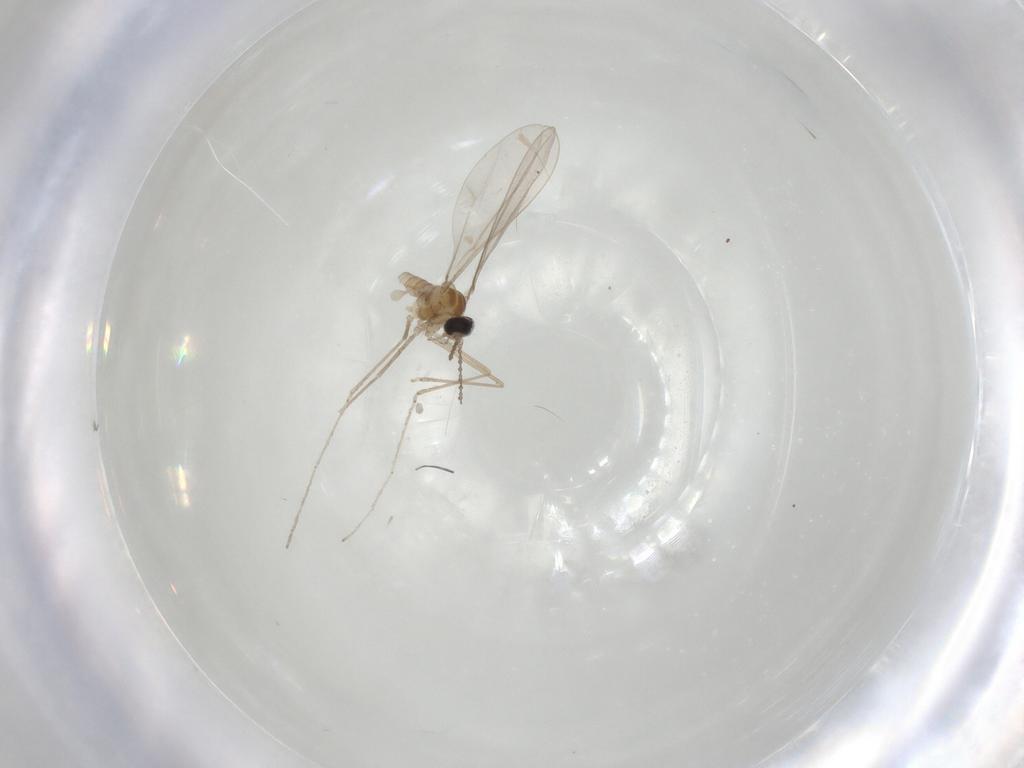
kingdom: Animalia
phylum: Arthropoda
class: Insecta
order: Diptera
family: Cecidomyiidae
